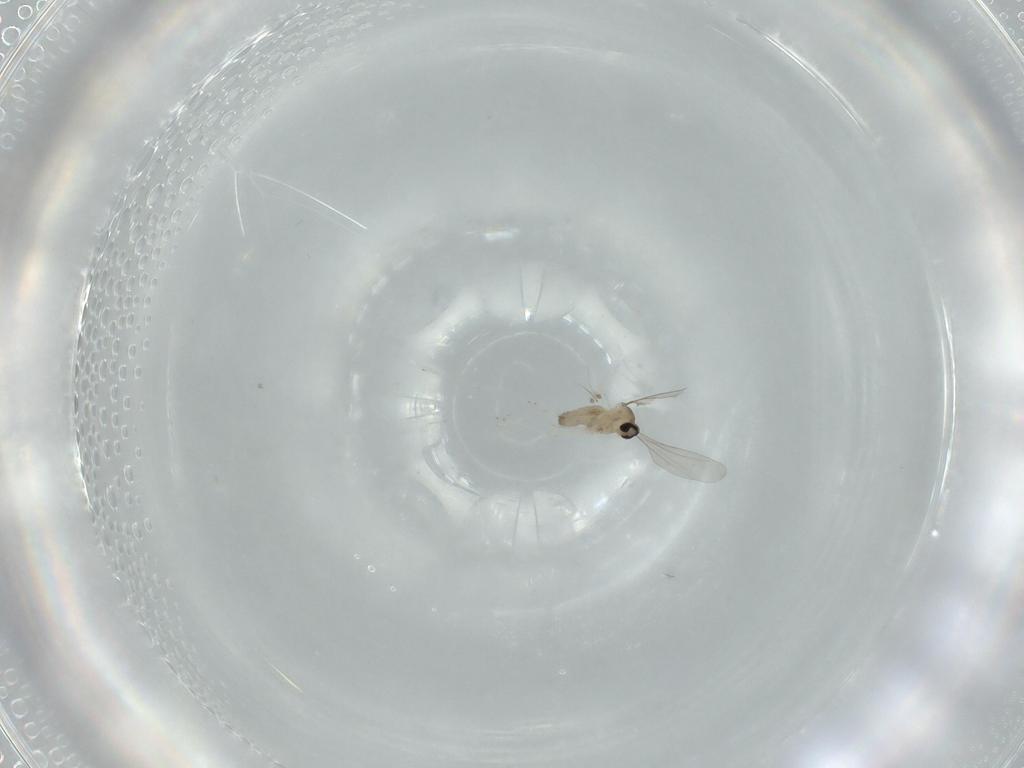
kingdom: Animalia
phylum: Arthropoda
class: Insecta
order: Diptera
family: Cecidomyiidae
